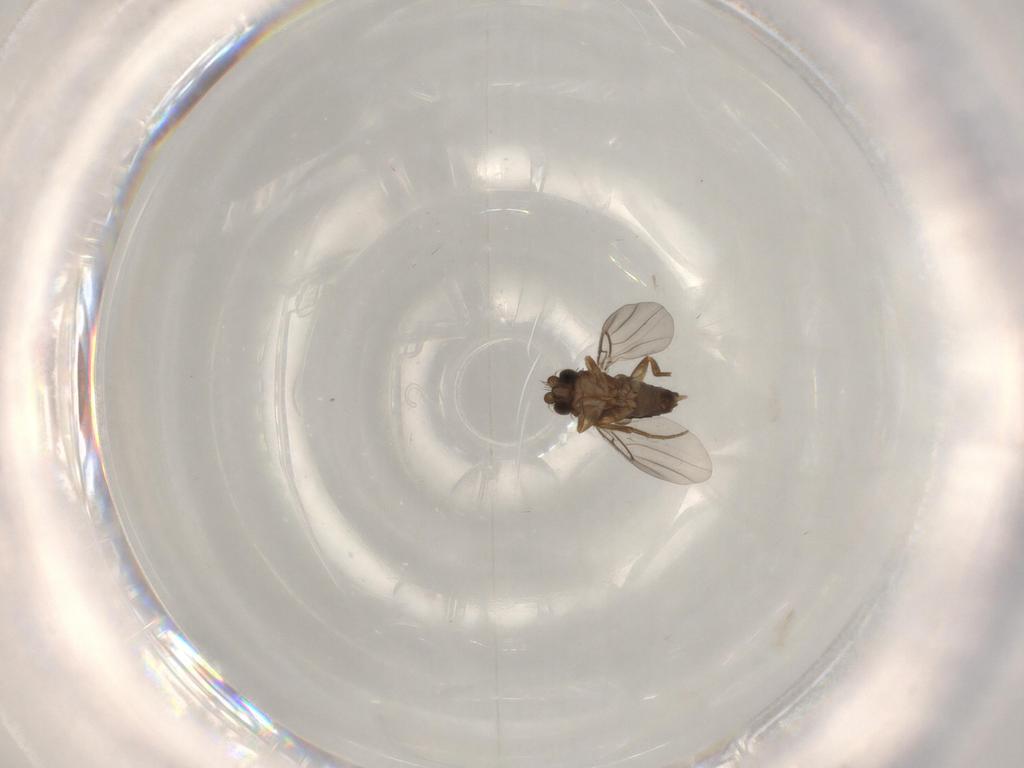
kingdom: Animalia
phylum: Arthropoda
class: Insecta
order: Diptera
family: Phoridae
